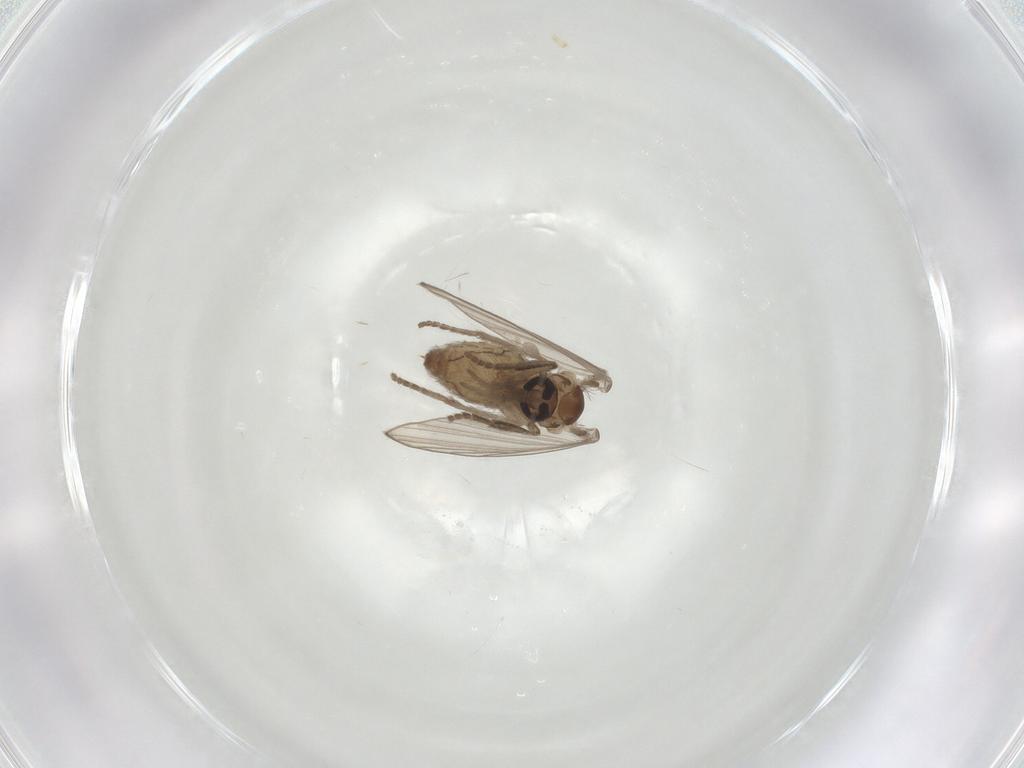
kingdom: Animalia
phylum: Arthropoda
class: Insecta
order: Diptera
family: Psychodidae
